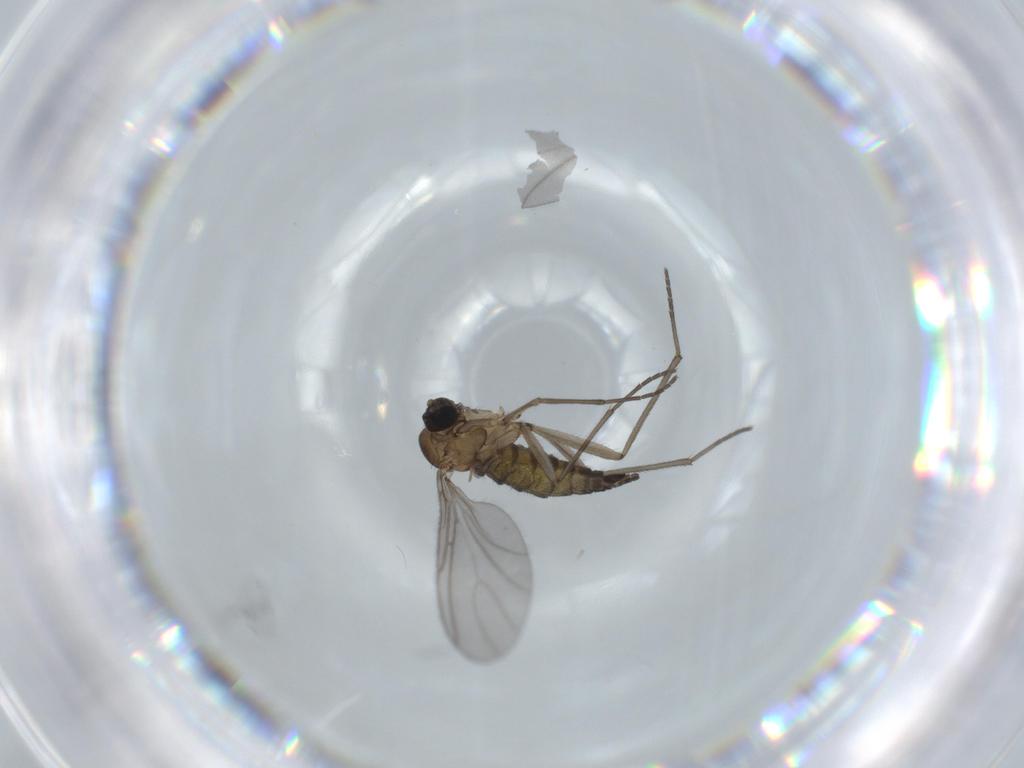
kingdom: Animalia
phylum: Arthropoda
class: Insecta
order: Diptera
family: Sciaridae
